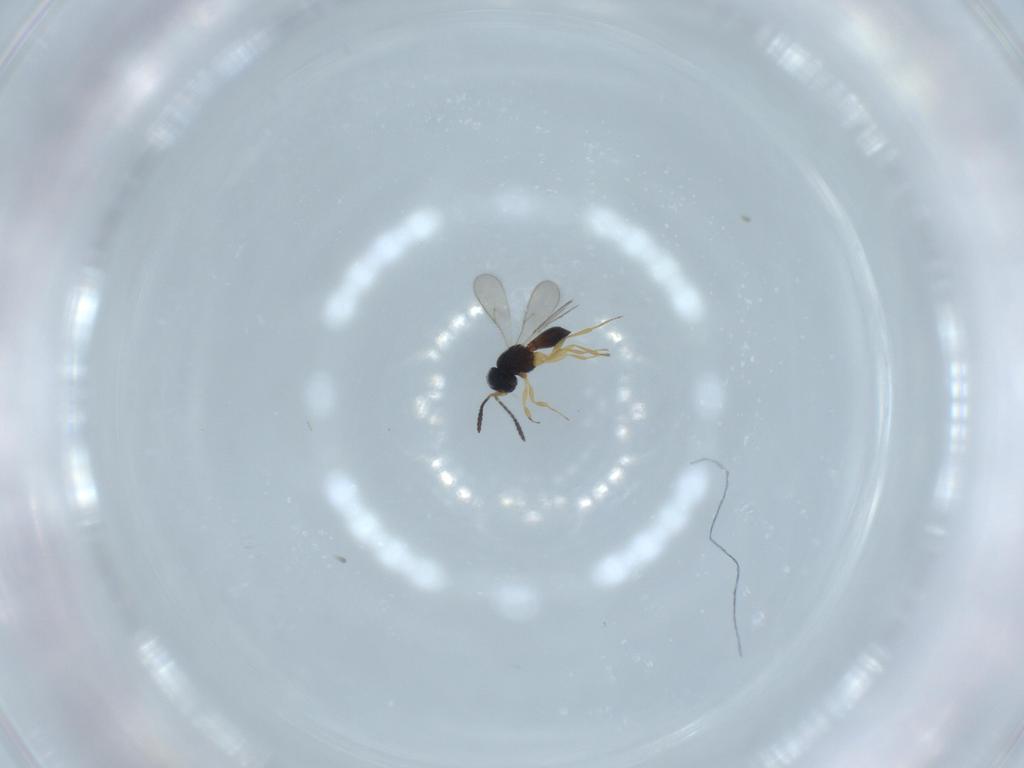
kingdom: Animalia
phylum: Arthropoda
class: Insecta
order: Hymenoptera
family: Scelionidae
